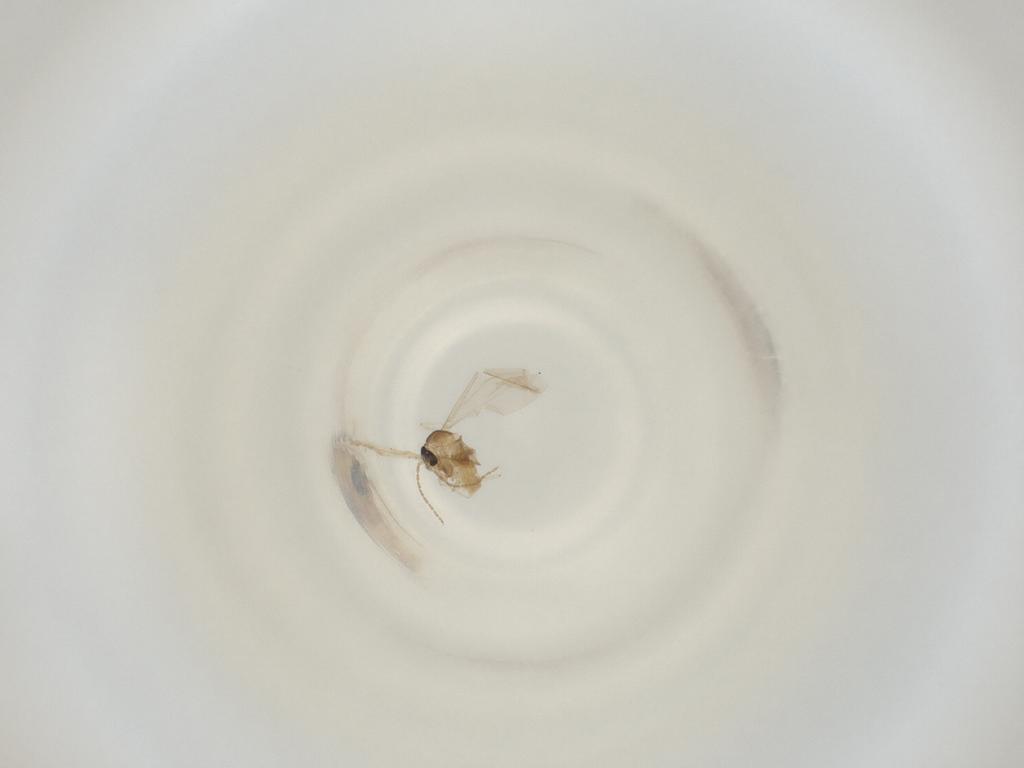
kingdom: Animalia
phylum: Arthropoda
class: Insecta
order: Diptera
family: Cecidomyiidae
